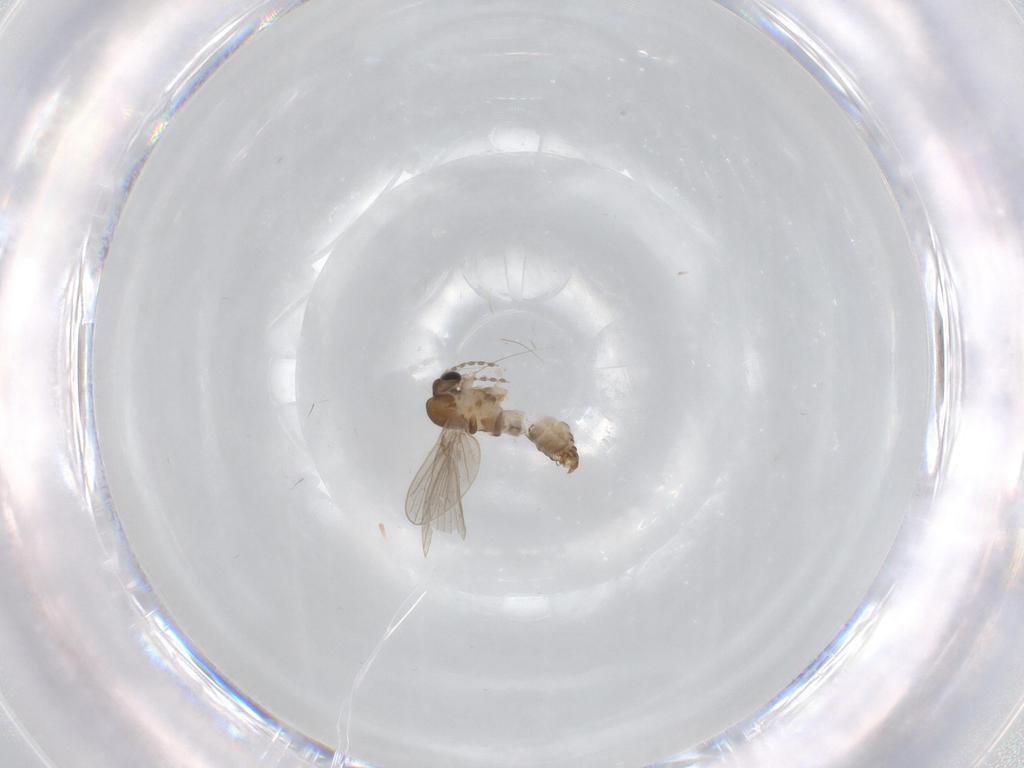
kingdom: Animalia
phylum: Arthropoda
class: Insecta
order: Diptera
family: Psychodidae
